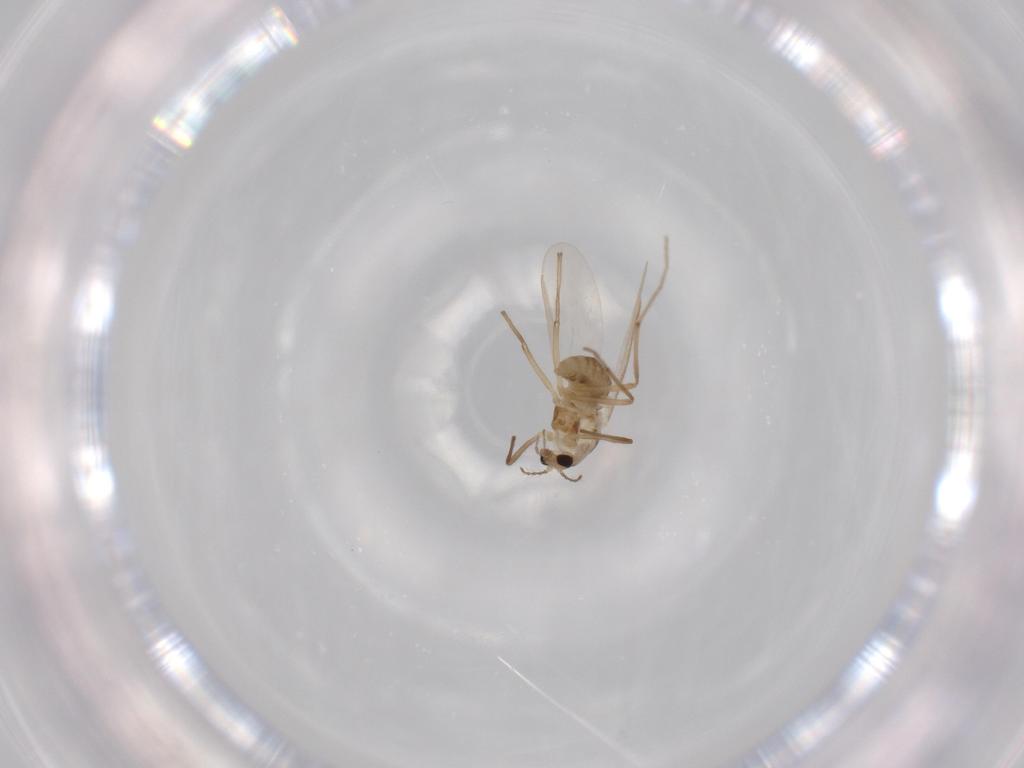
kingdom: Animalia
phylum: Arthropoda
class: Insecta
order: Diptera
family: Chironomidae
